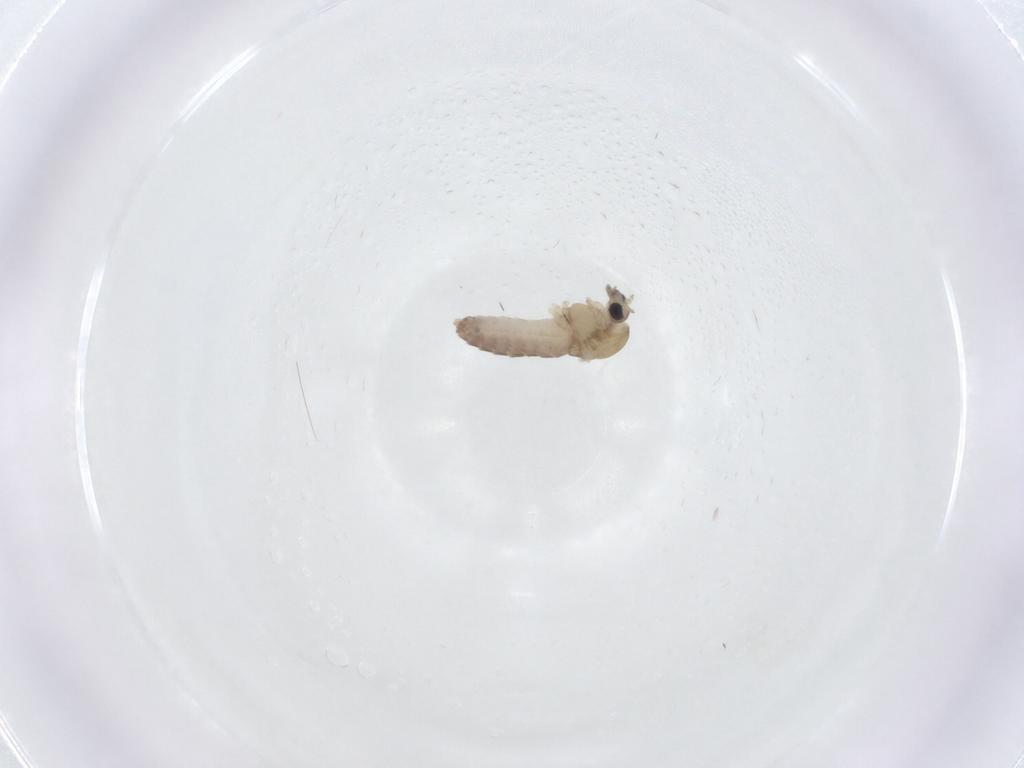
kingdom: Animalia
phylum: Arthropoda
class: Insecta
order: Diptera
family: Chironomidae
